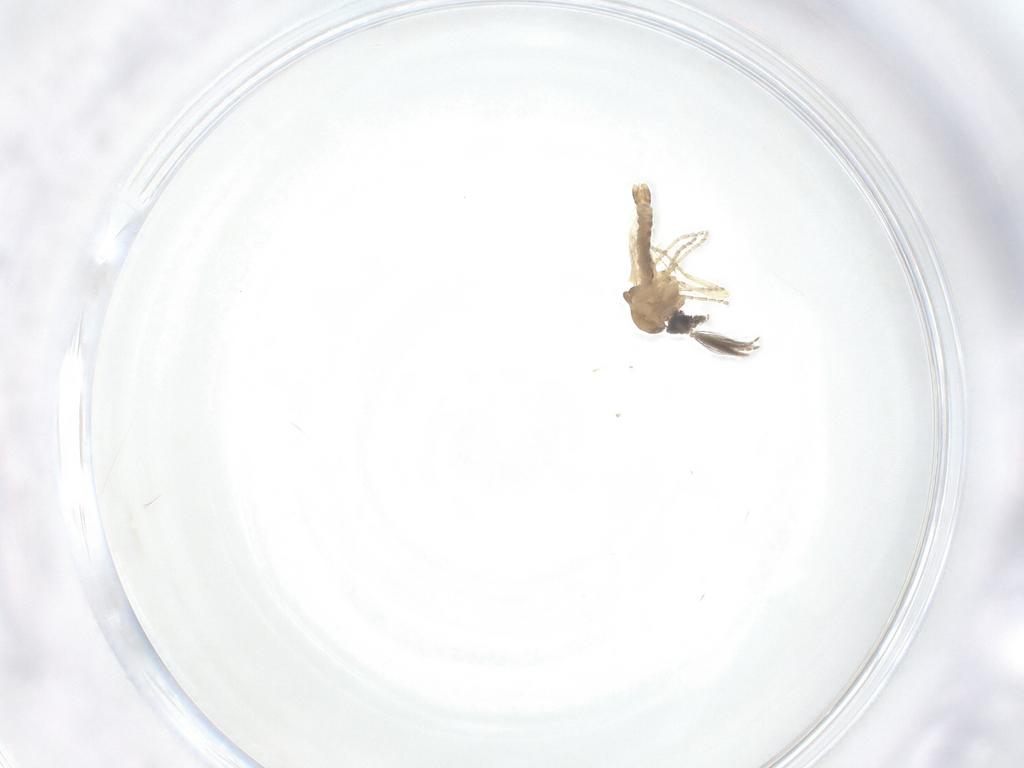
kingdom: Animalia
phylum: Arthropoda
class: Insecta
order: Diptera
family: Ceratopogonidae
